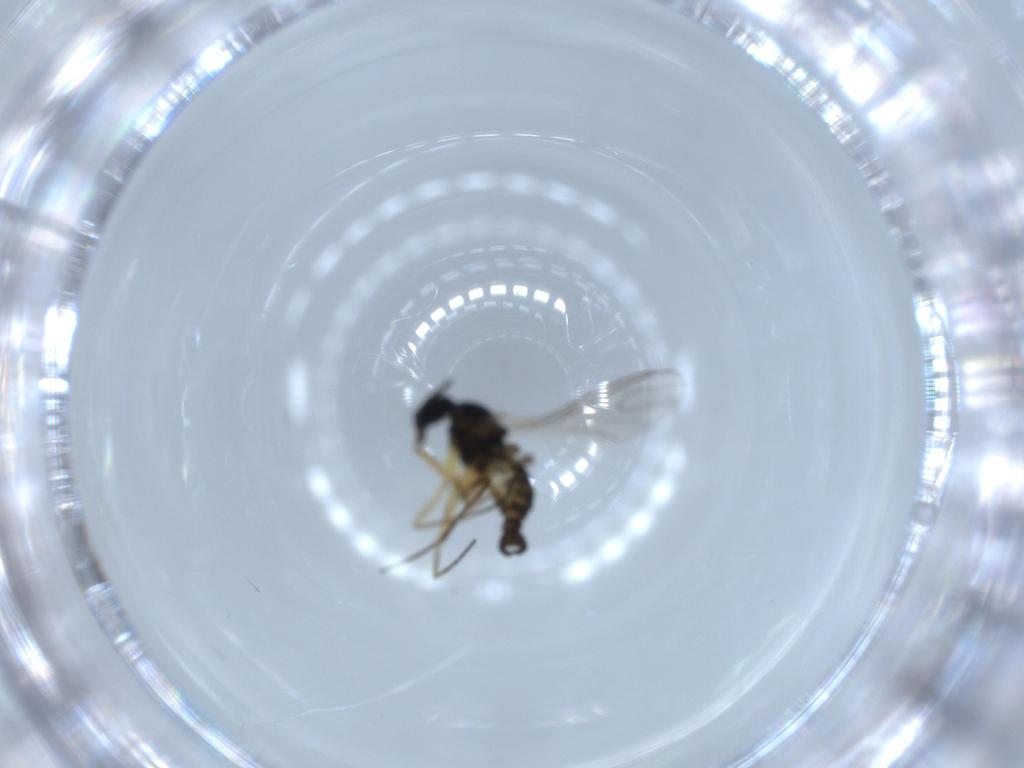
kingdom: Animalia
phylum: Arthropoda
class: Insecta
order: Diptera
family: Sciaridae
